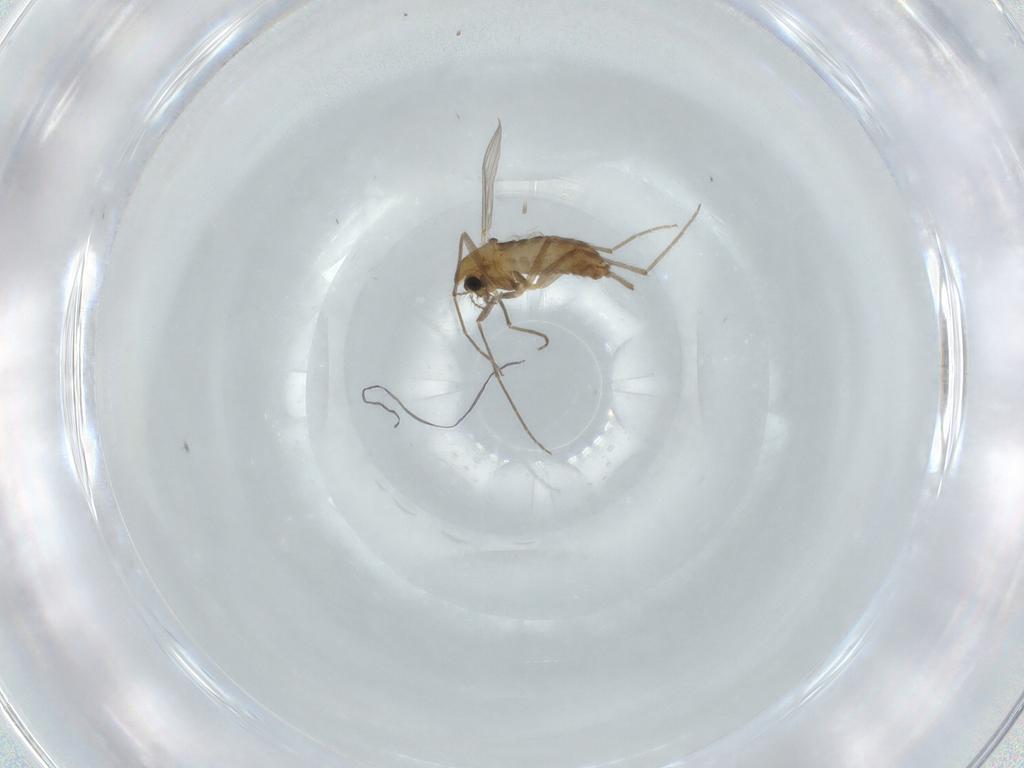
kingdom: Animalia
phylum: Arthropoda
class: Insecta
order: Diptera
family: Chironomidae
